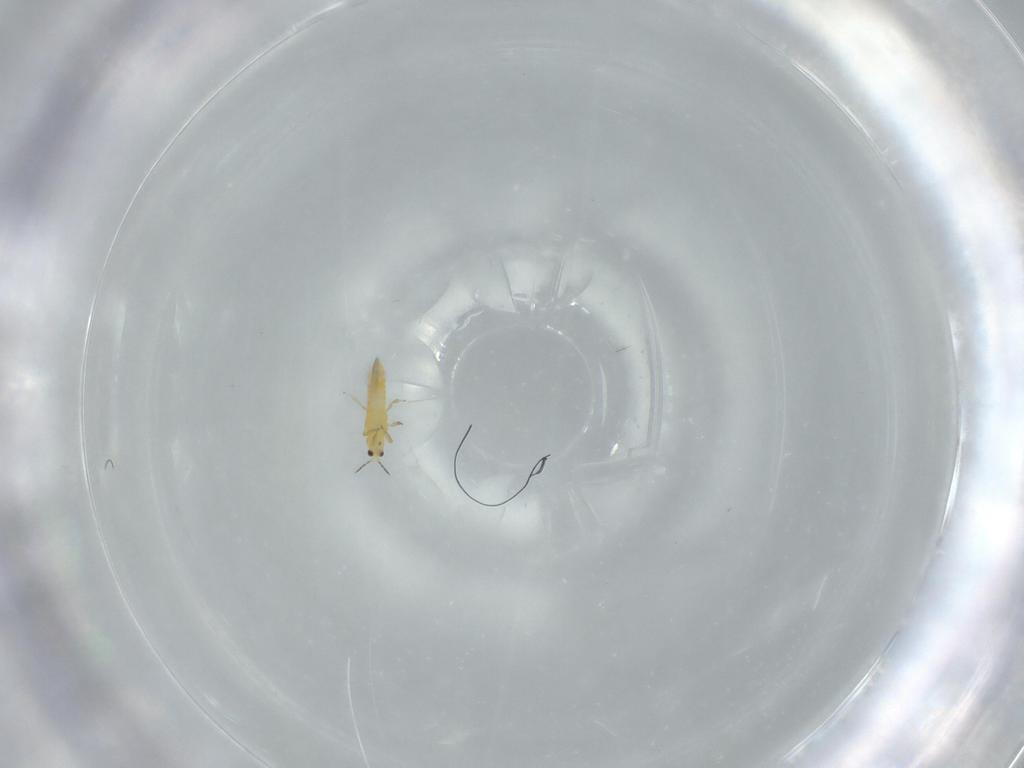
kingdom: Animalia
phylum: Arthropoda
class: Insecta
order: Thysanoptera
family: Thripidae
